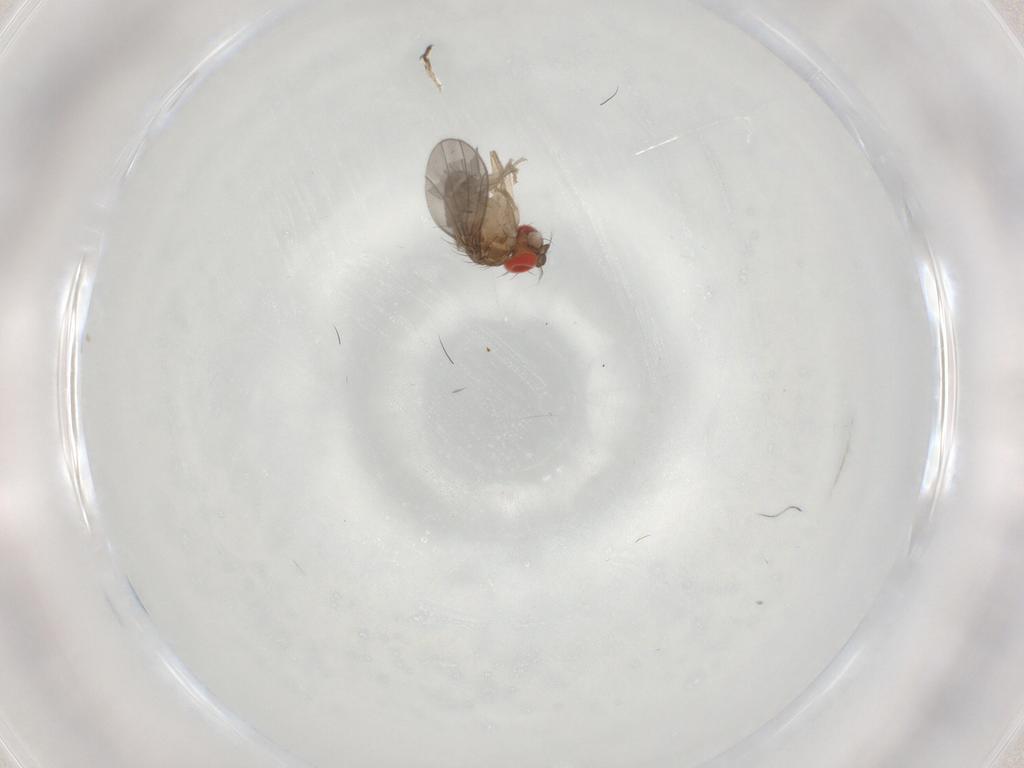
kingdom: Animalia
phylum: Arthropoda
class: Insecta
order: Diptera
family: Drosophilidae
